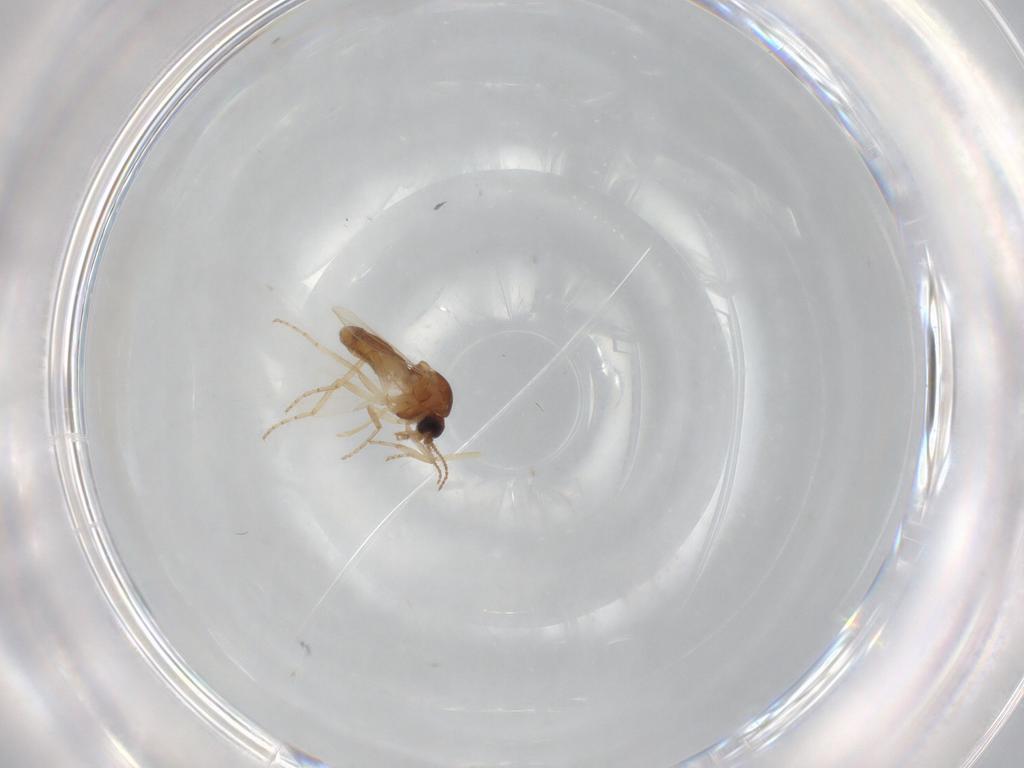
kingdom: Animalia
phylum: Arthropoda
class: Insecta
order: Diptera
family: Ceratopogonidae
